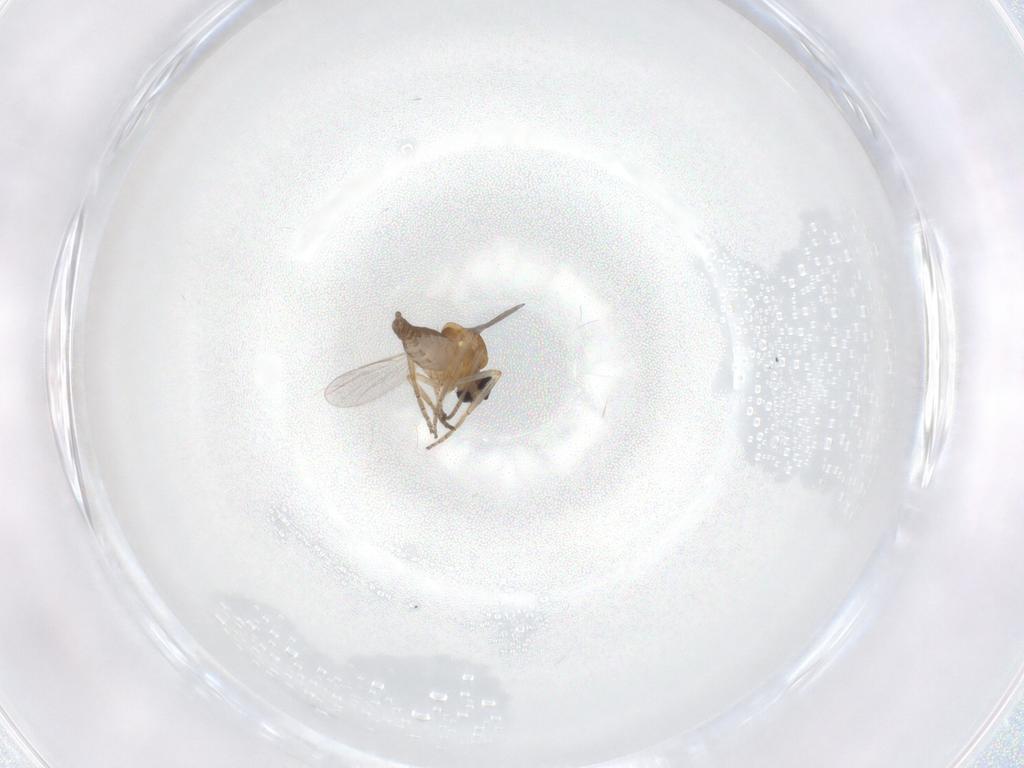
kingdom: Animalia
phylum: Arthropoda
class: Insecta
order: Diptera
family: Ceratopogonidae
